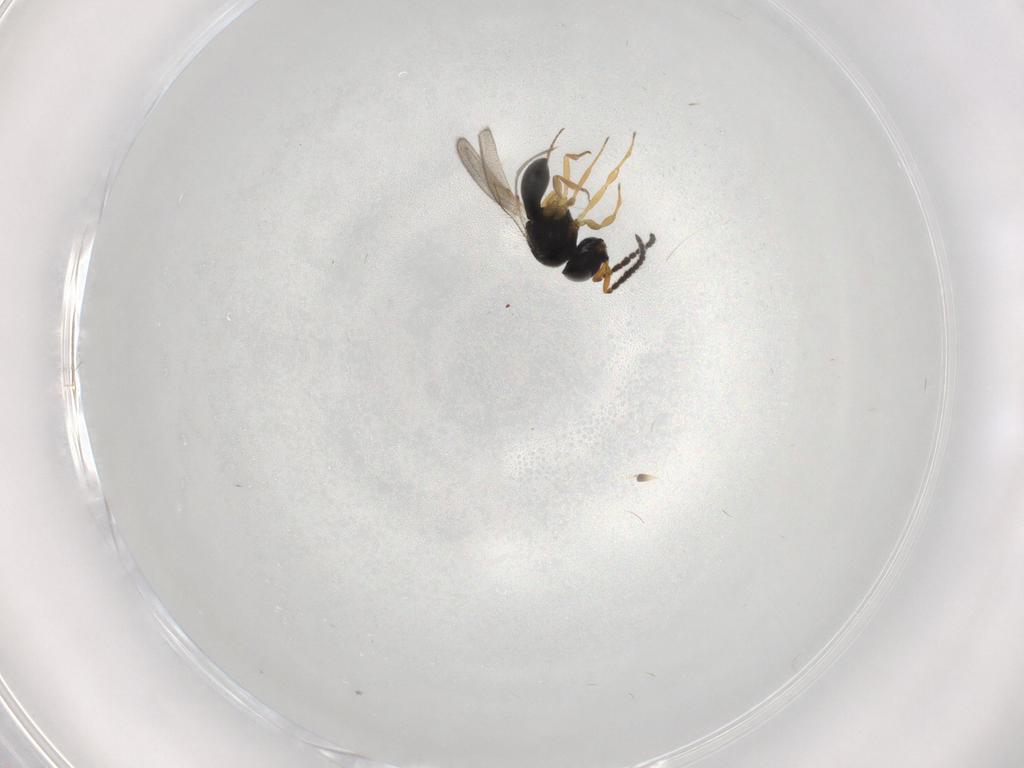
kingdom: Animalia
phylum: Arthropoda
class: Insecta
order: Hymenoptera
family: Scelionidae
